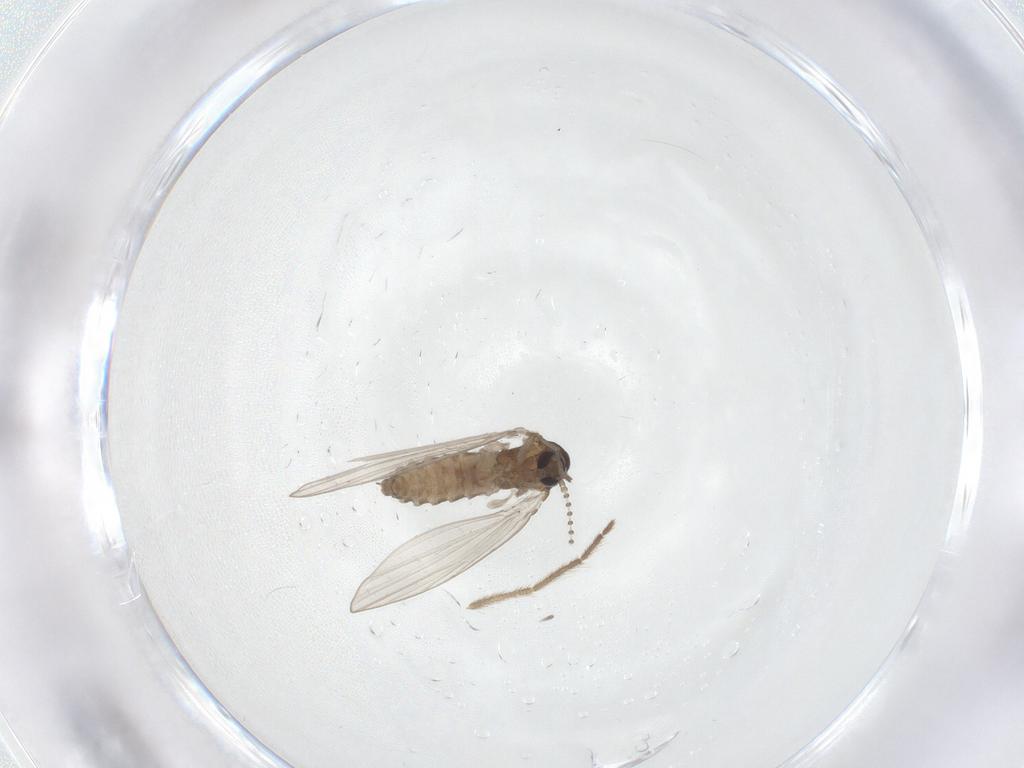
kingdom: Animalia
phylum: Arthropoda
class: Insecta
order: Diptera
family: Chironomidae
